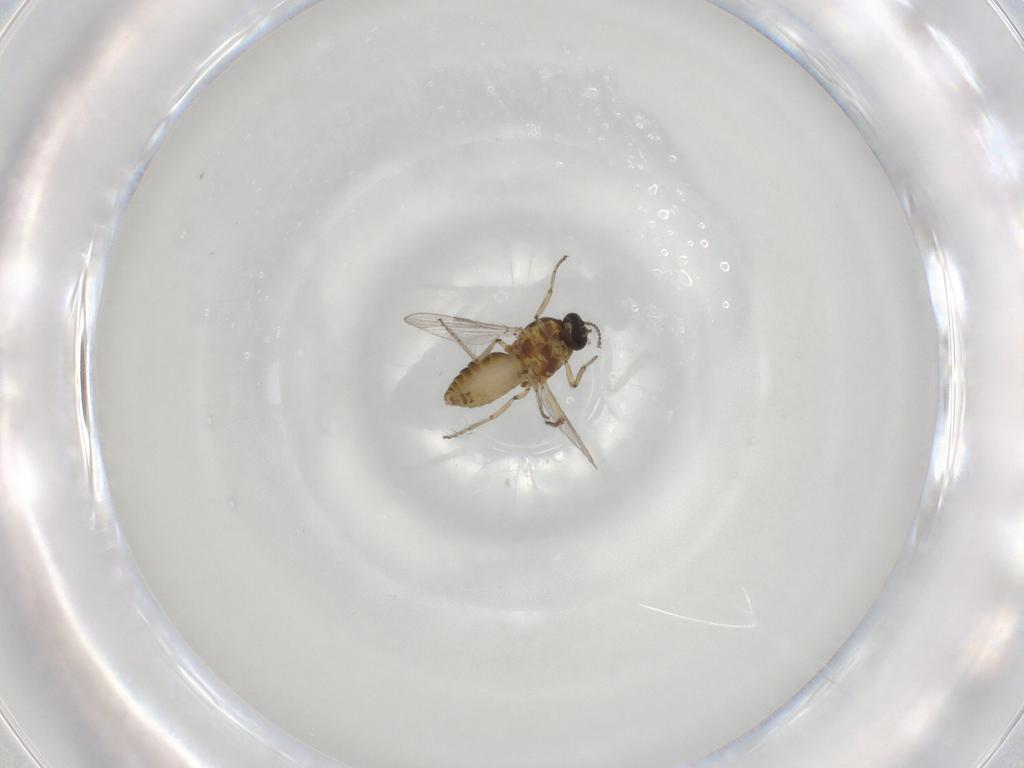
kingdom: Animalia
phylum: Arthropoda
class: Insecta
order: Diptera
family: Ceratopogonidae
